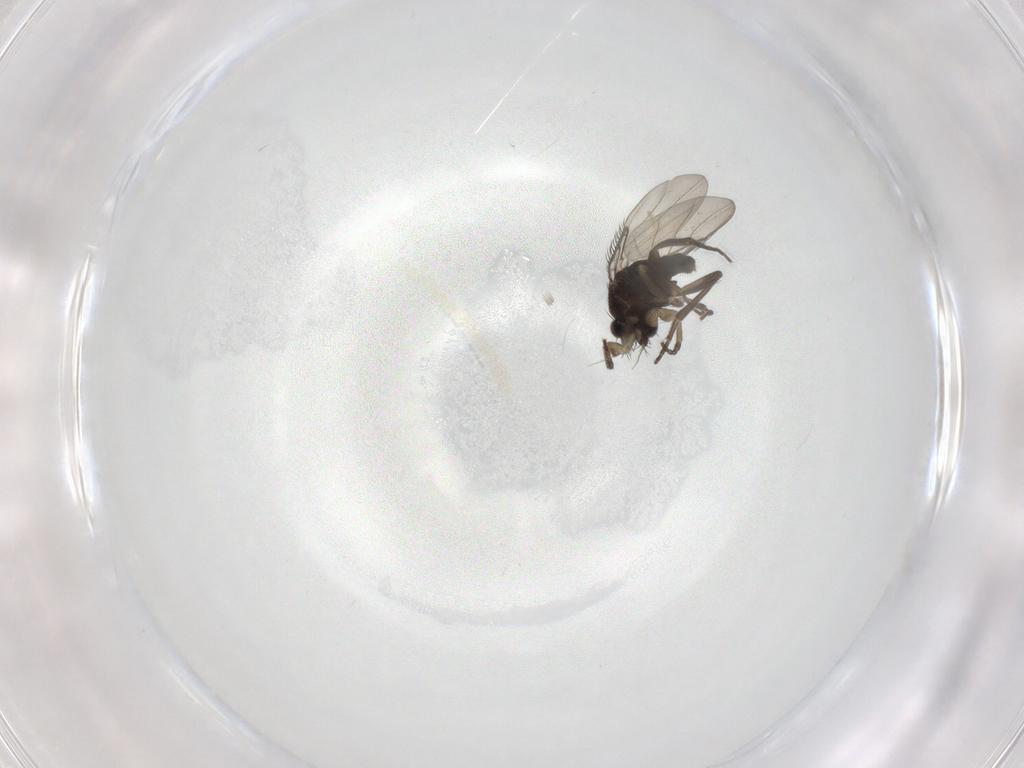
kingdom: Animalia
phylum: Arthropoda
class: Insecta
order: Diptera
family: Phoridae
